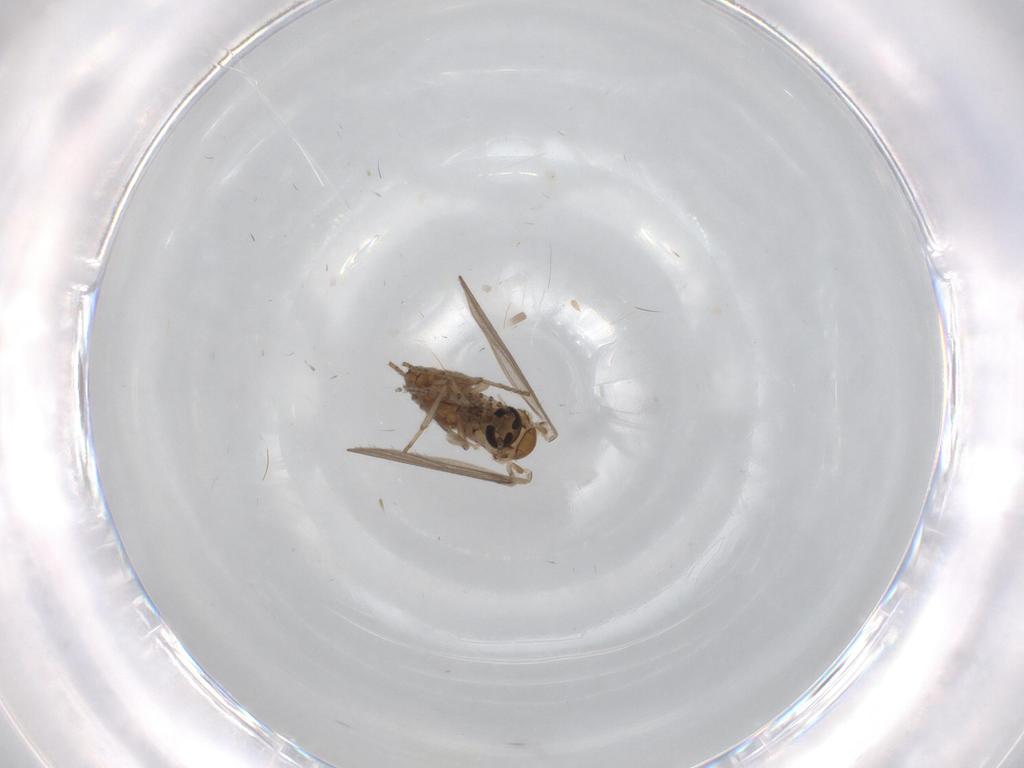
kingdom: Animalia
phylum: Arthropoda
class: Insecta
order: Diptera
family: Psychodidae
